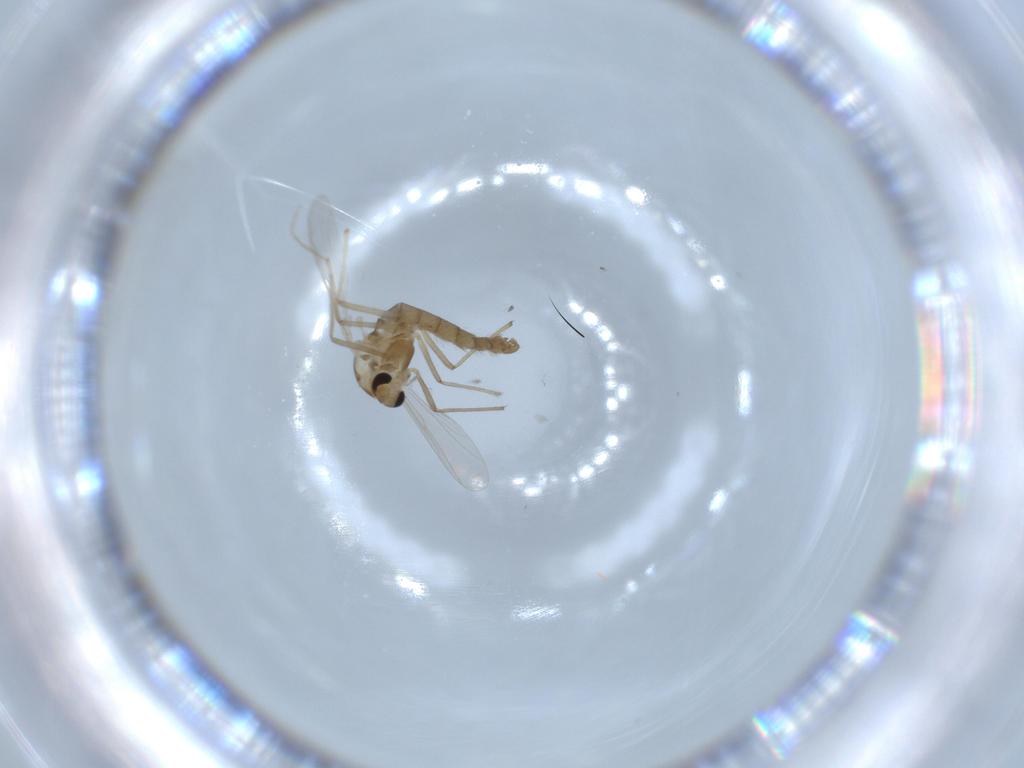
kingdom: Animalia
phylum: Arthropoda
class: Insecta
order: Diptera
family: Chironomidae
